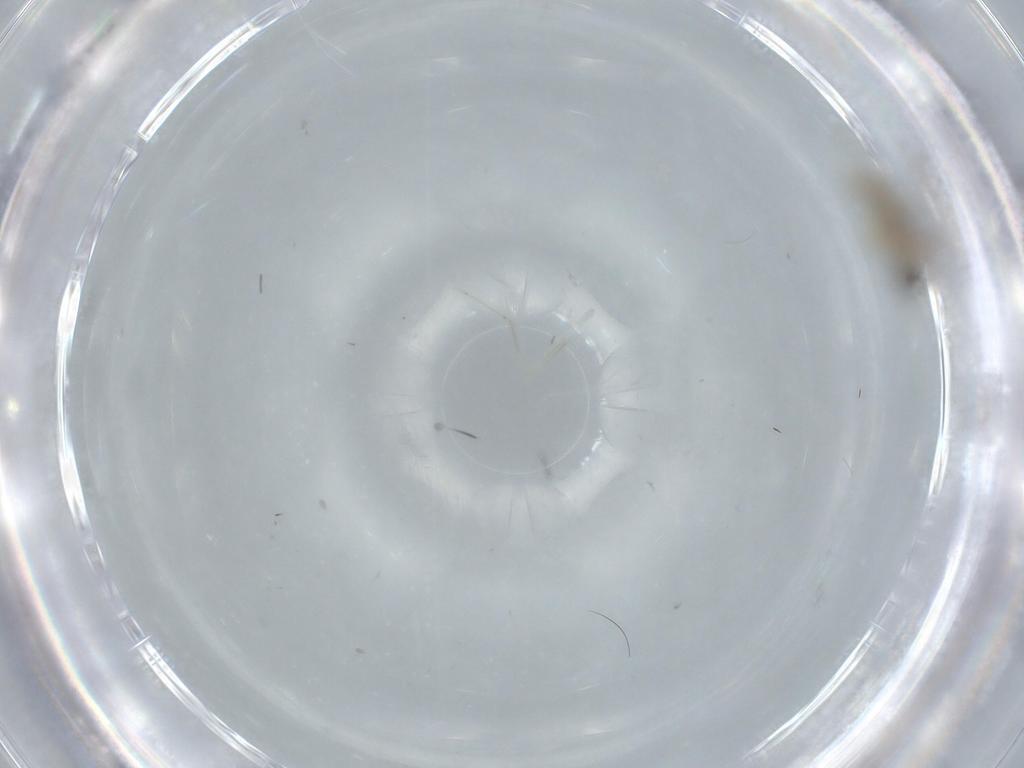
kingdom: Animalia
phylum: Arthropoda
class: Insecta
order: Diptera
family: Cecidomyiidae
